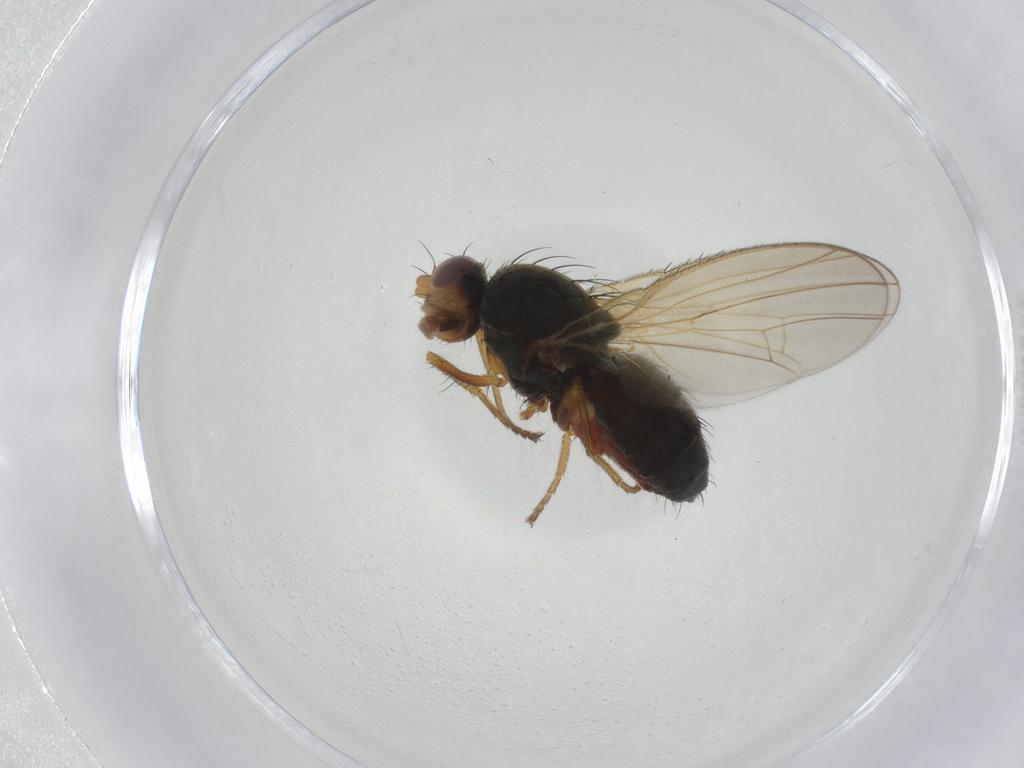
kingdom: Animalia
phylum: Arthropoda
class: Insecta
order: Diptera
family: Heleomyzidae
